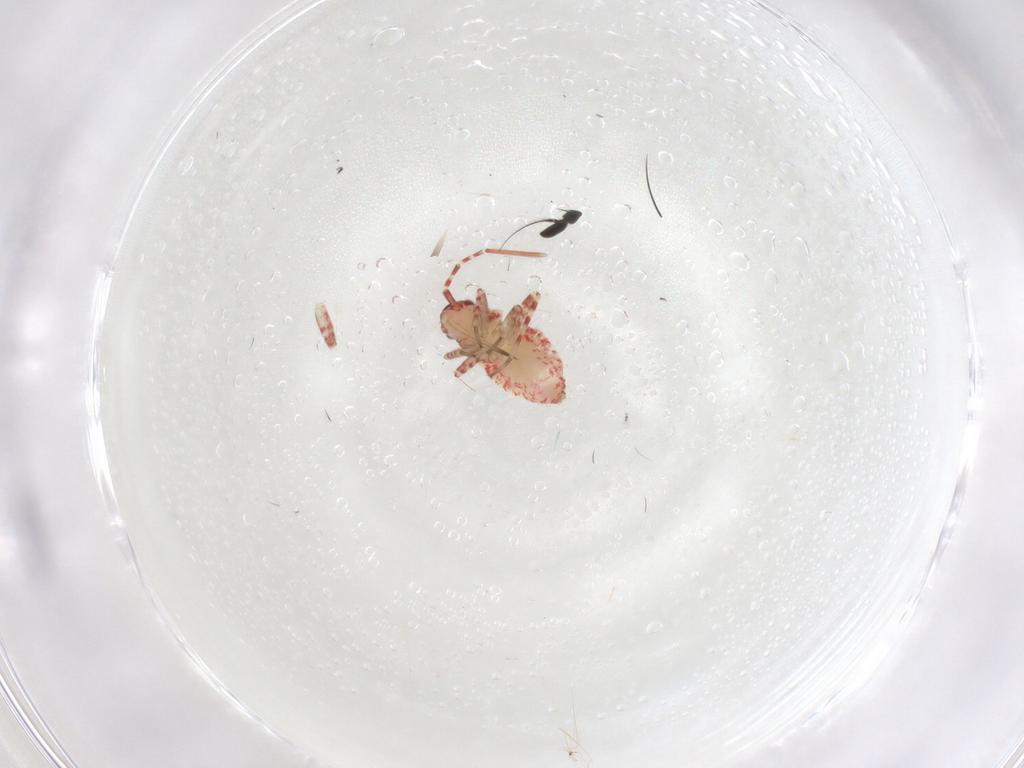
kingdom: Animalia
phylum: Arthropoda
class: Insecta
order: Hemiptera
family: Miridae
